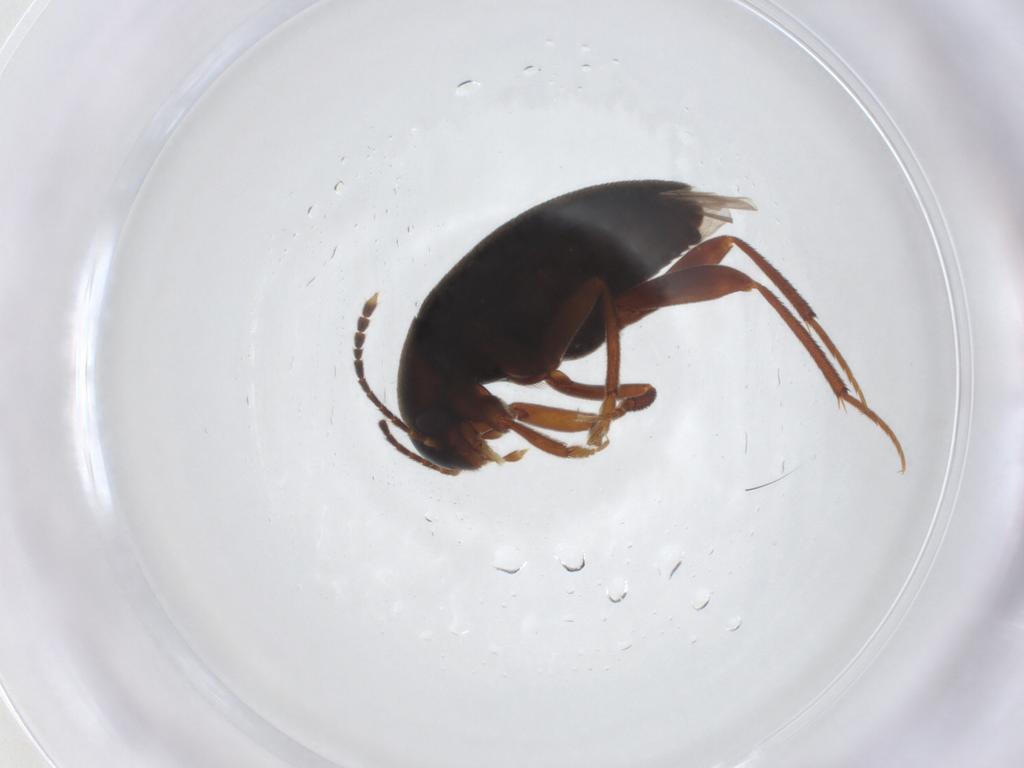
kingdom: Animalia
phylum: Arthropoda
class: Insecta
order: Coleoptera
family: Leiodidae
